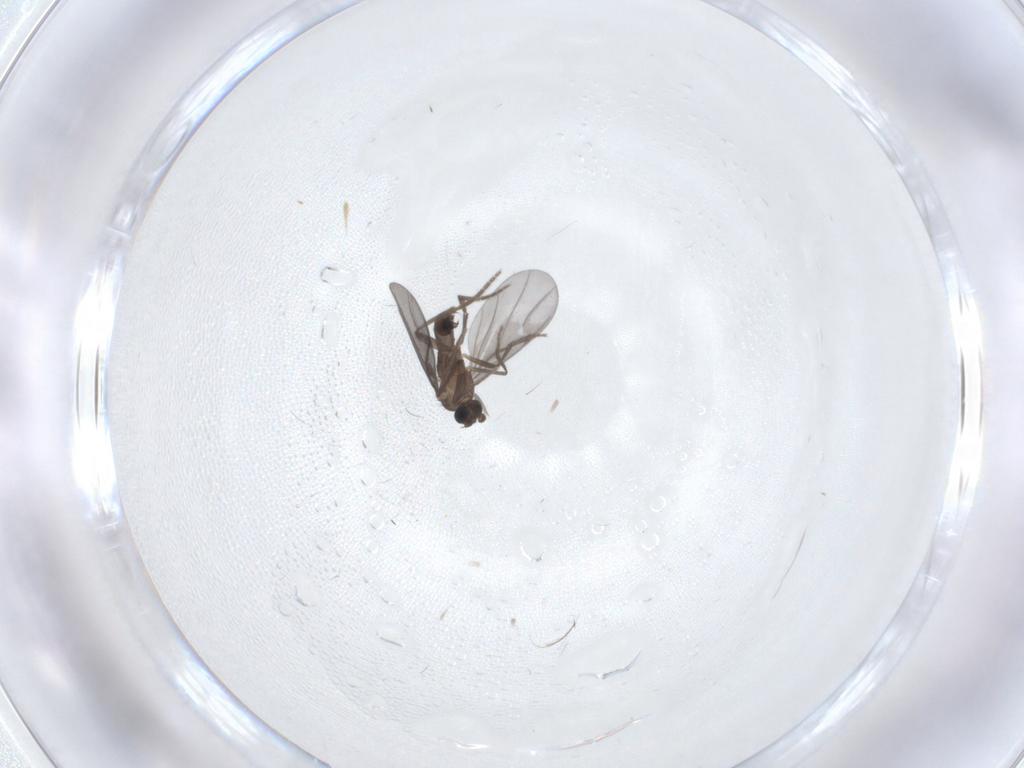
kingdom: Animalia
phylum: Arthropoda
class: Insecta
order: Diptera
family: Phoridae
